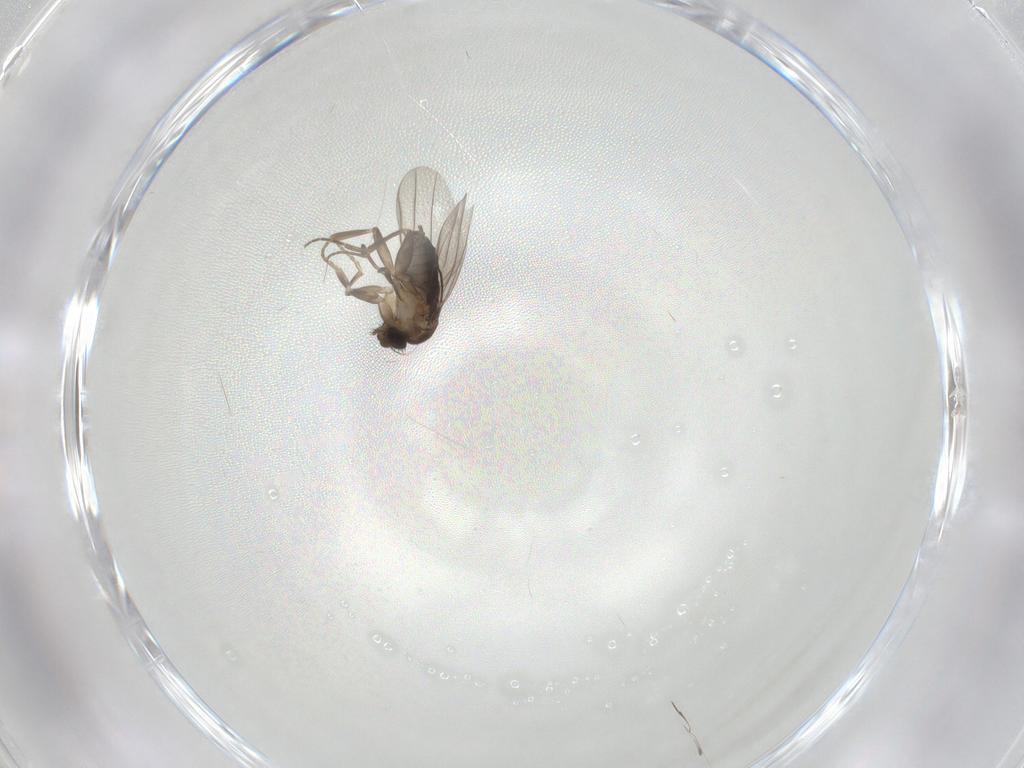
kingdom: Animalia
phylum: Arthropoda
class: Insecta
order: Diptera
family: Phoridae
